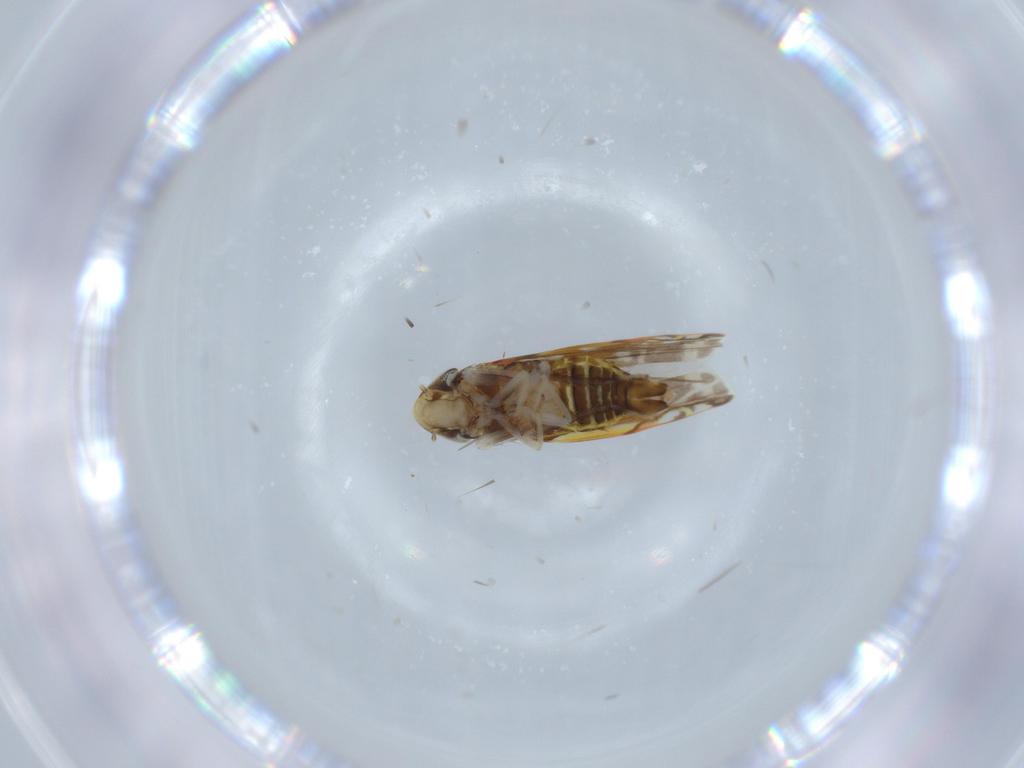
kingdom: Animalia
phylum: Arthropoda
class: Insecta
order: Hemiptera
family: Cicadellidae
